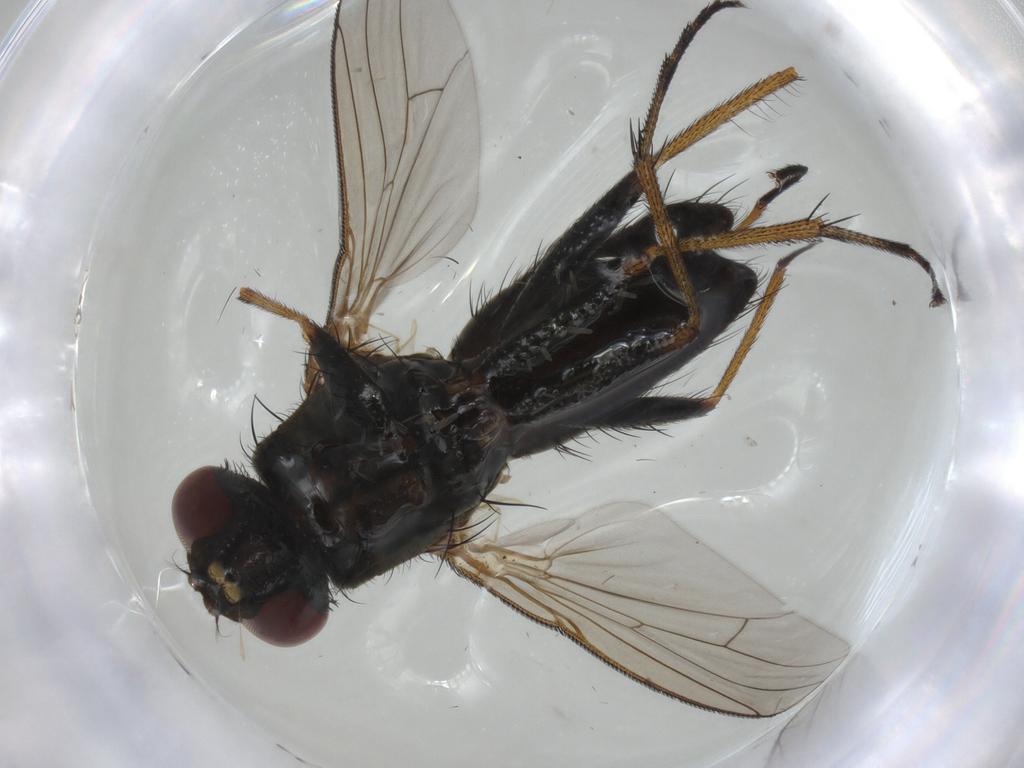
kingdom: Animalia
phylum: Arthropoda
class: Insecta
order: Diptera
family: Muscidae
